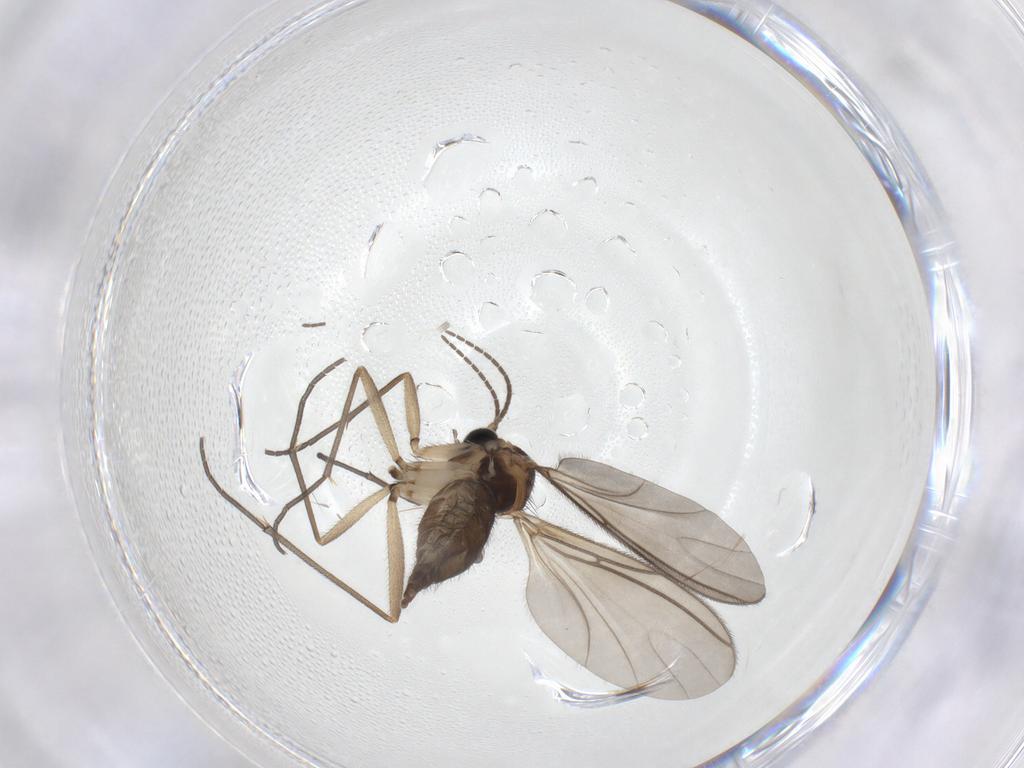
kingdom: Animalia
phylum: Arthropoda
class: Insecta
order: Diptera
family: Sciaridae
